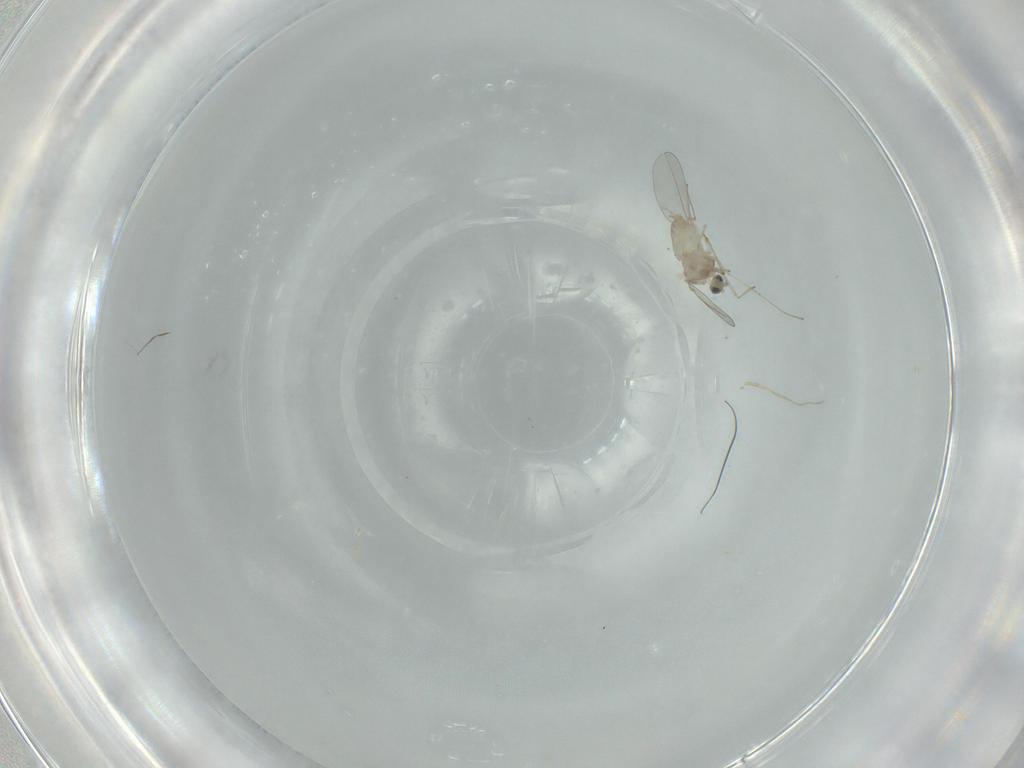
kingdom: Animalia
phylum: Arthropoda
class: Insecta
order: Diptera
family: Cecidomyiidae
